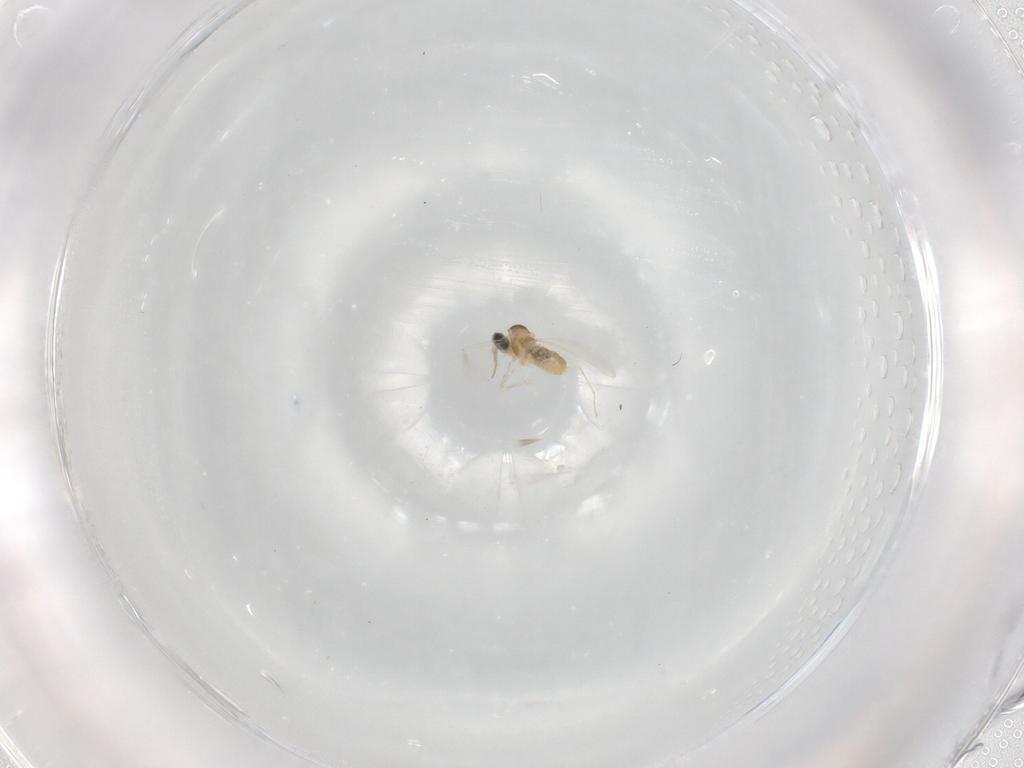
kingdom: Animalia
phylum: Arthropoda
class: Insecta
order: Diptera
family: Cecidomyiidae
